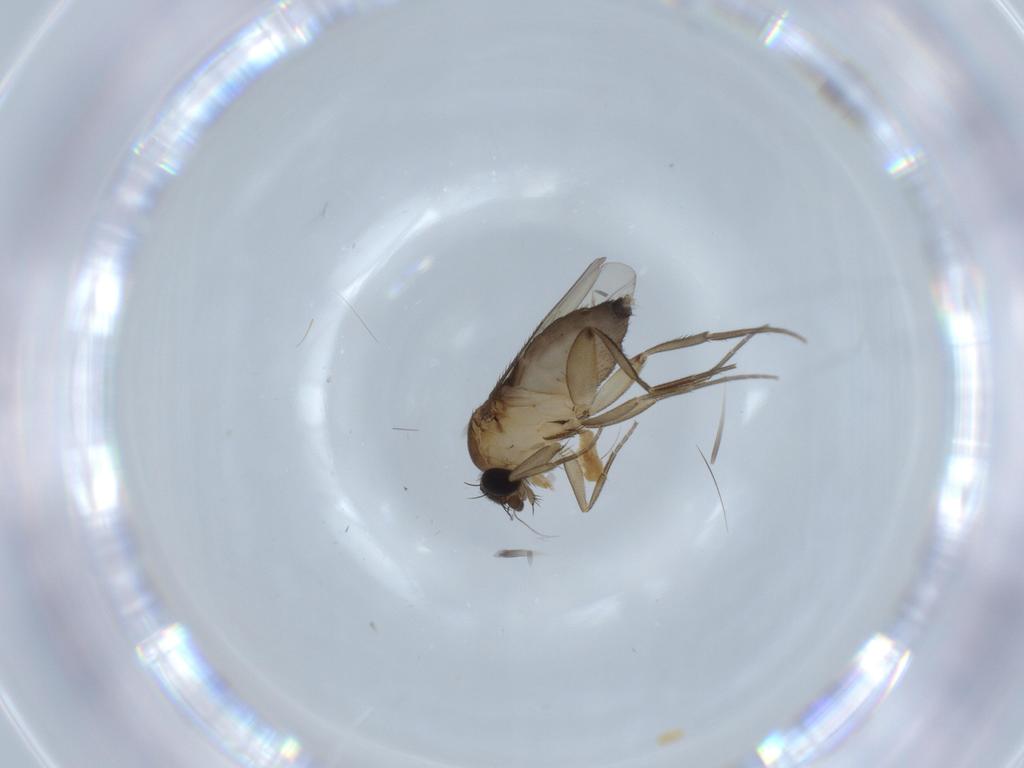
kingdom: Animalia
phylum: Arthropoda
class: Insecta
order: Diptera
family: Phoridae
